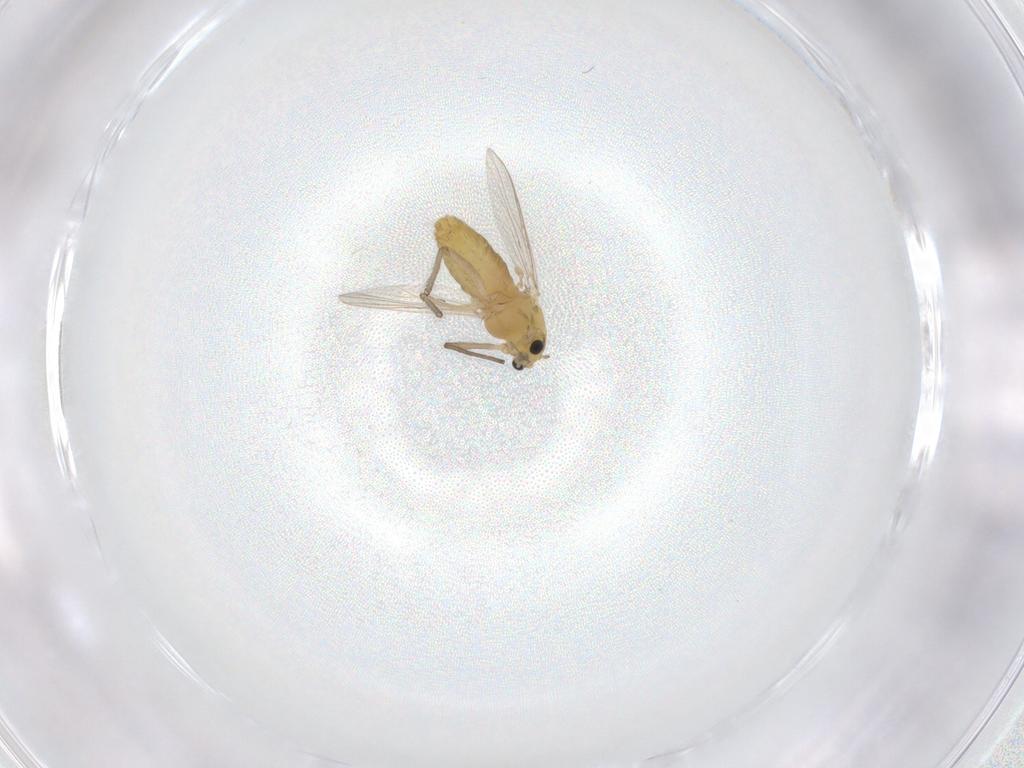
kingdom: Animalia
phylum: Arthropoda
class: Insecta
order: Diptera
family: Chironomidae
